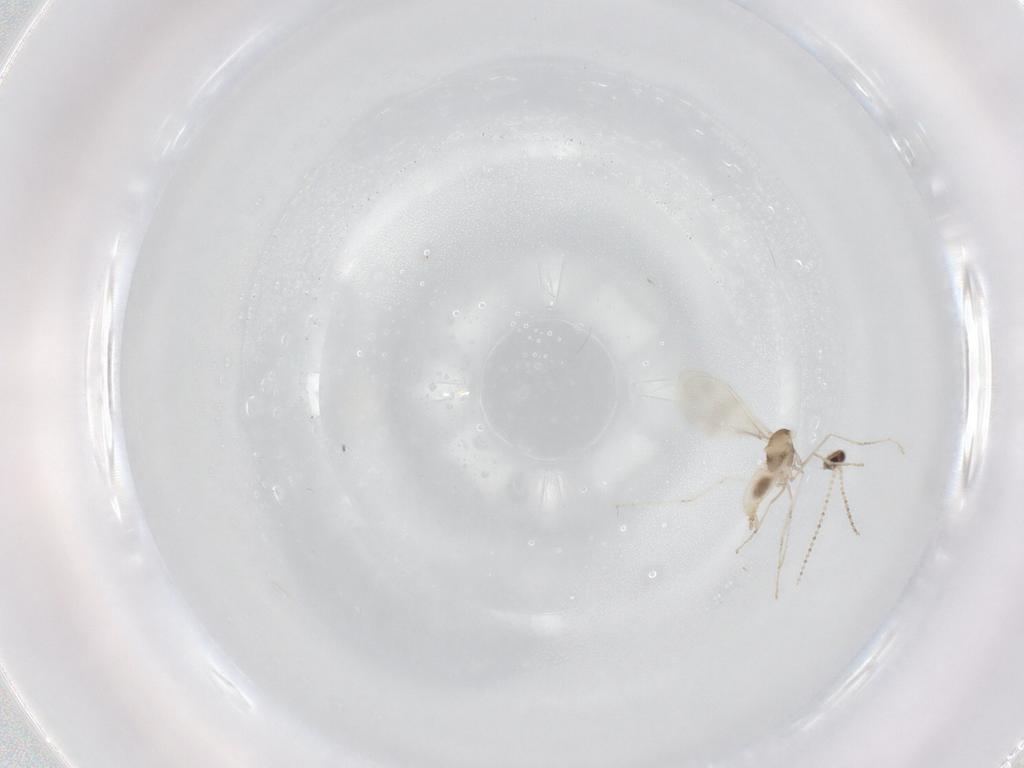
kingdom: Animalia
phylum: Arthropoda
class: Insecta
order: Diptera
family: Cecidomyiidae
